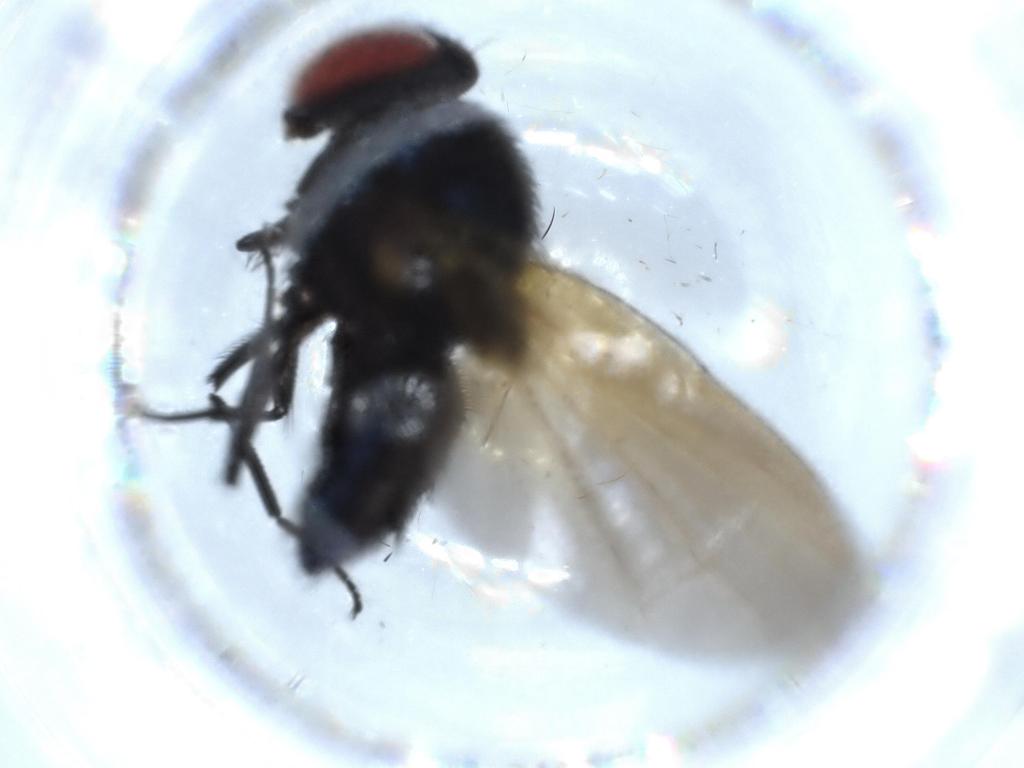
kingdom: Animalia
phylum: Arthropoda
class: Insecta
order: Diptera
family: Lonchaeidae
